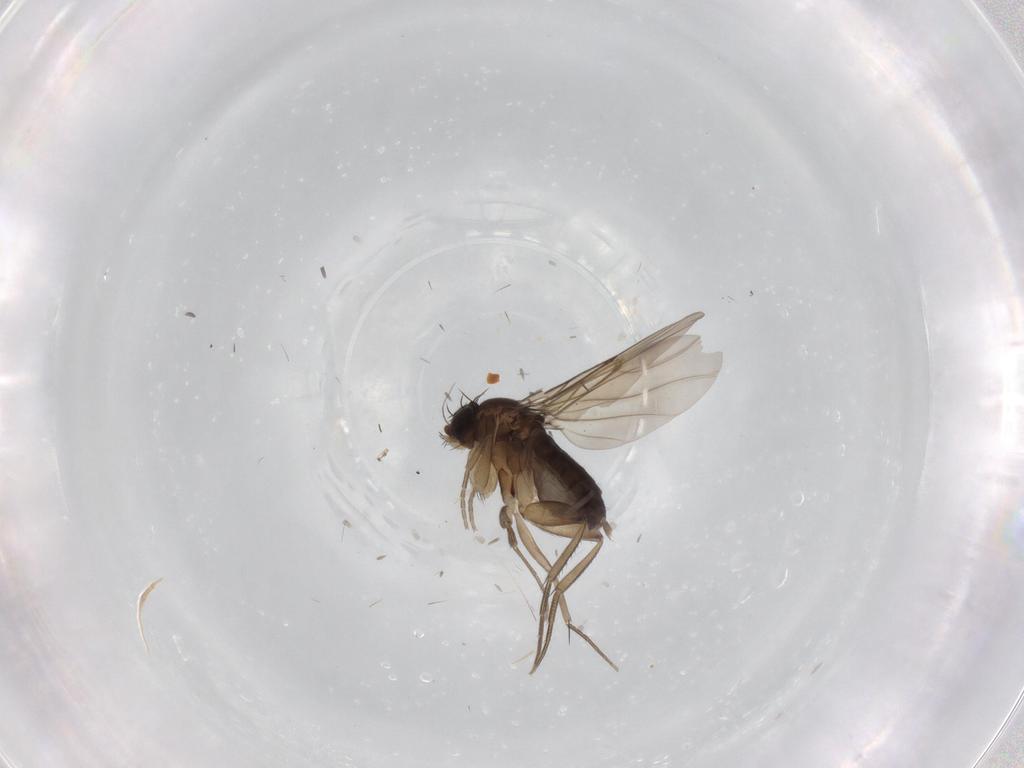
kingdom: Animalia
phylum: Arthropoda
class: Insecta
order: Diptera
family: Phoridae
